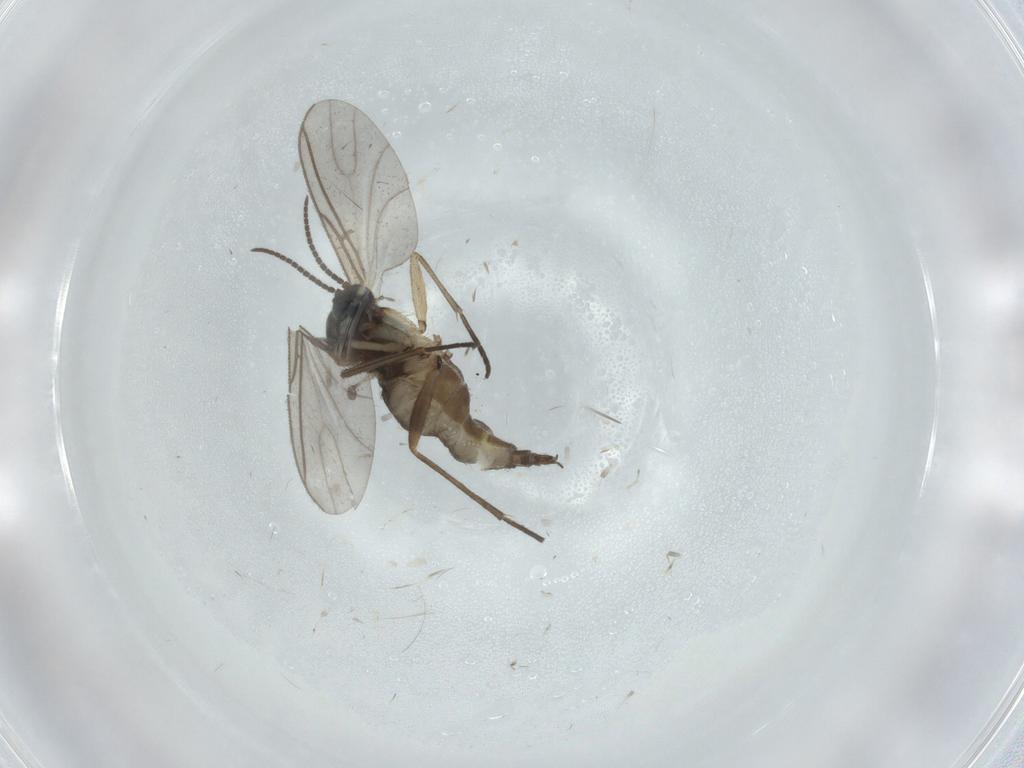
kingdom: Animalia
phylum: Arthropoda
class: Insecta
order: Diptera
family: Sciaridae
